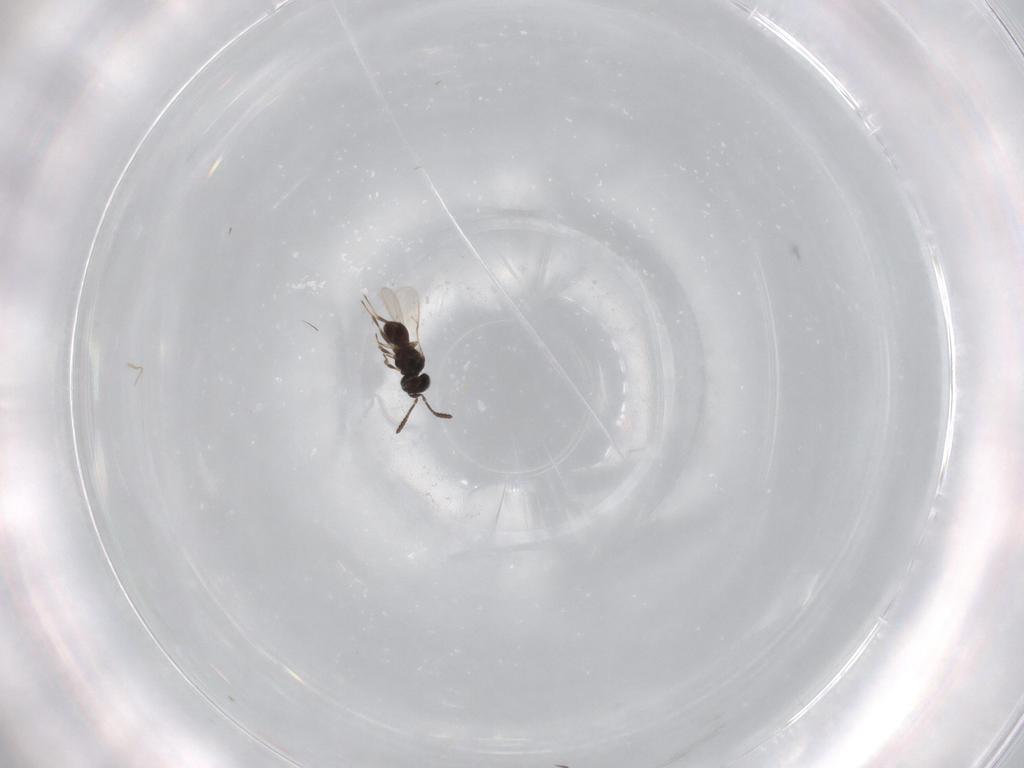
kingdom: Animalia
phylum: Arthropoda
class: Insecta
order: Hymenoptera
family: Scelionidae
